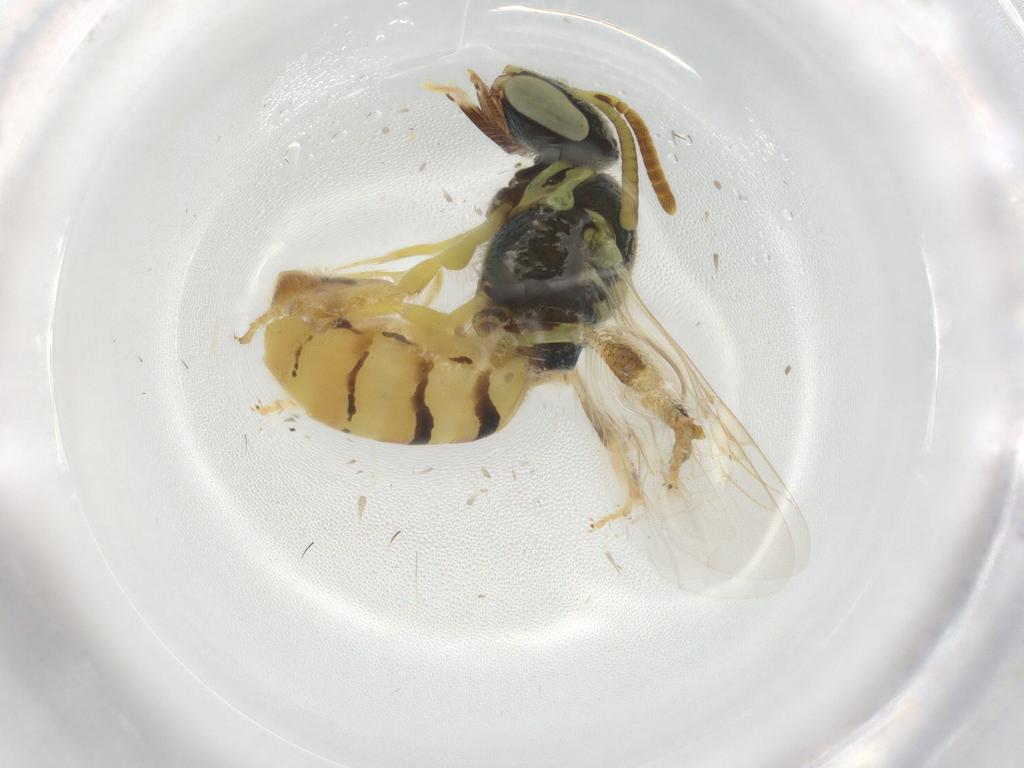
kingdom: Animalia
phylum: Arthropoda
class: Insecta
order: Hymenoptera
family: Halictidae
